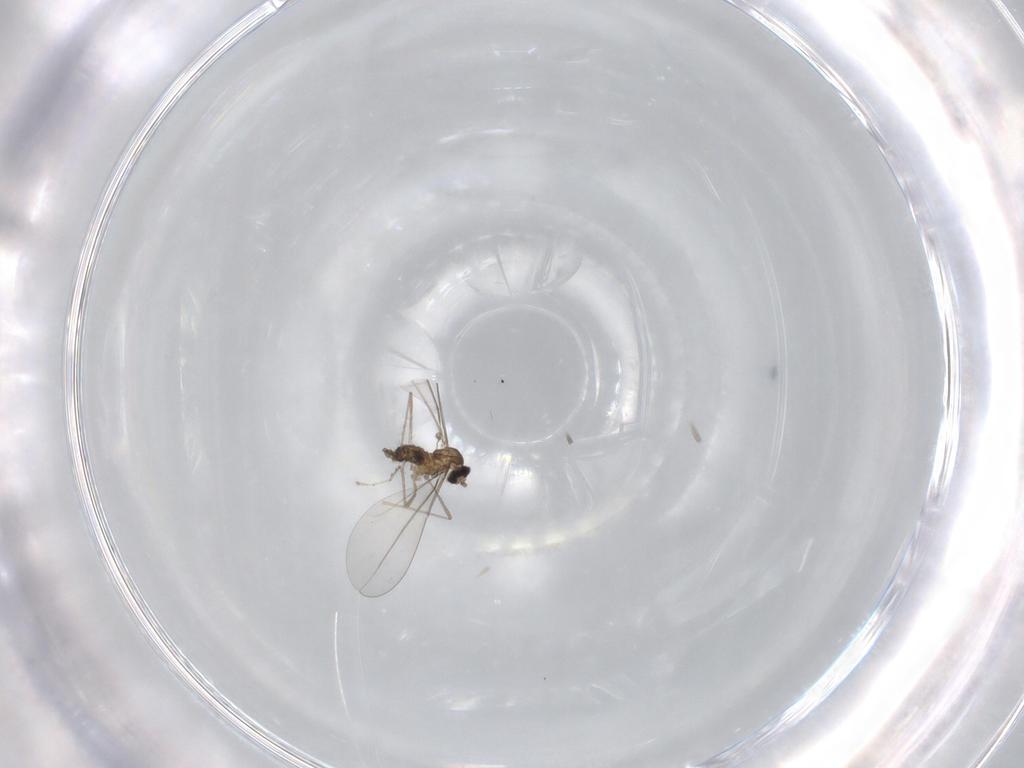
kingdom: Animalia
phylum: Arthropoda
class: Insecta
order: Diptera
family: Cecidomyiidae
